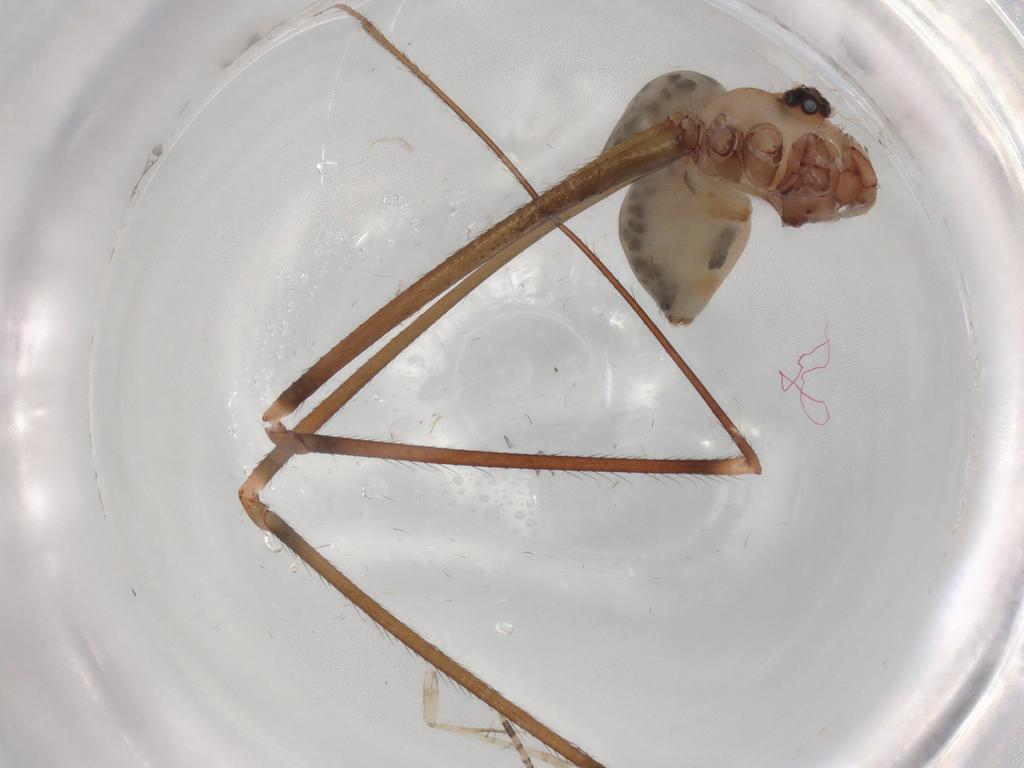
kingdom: Animalia
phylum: Arthropoda
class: Arachnida
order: Araneae
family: Pholcidae
